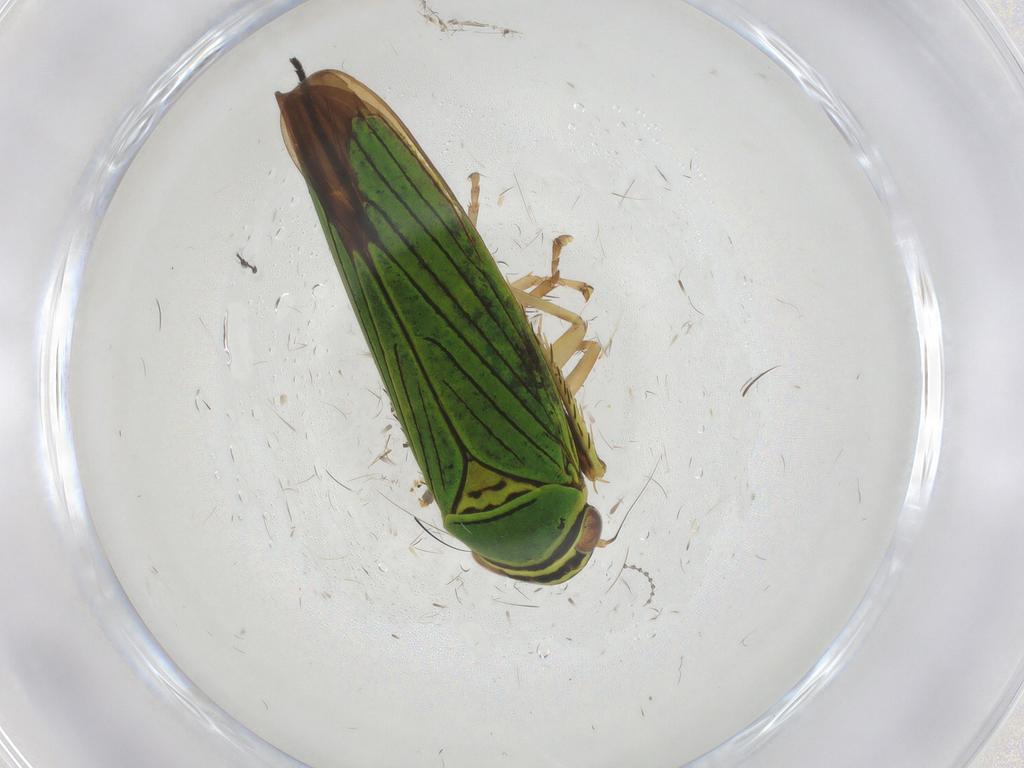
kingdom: Animalia
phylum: Arthropoda
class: Insecta
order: Hemiptera
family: Cicadellidae
